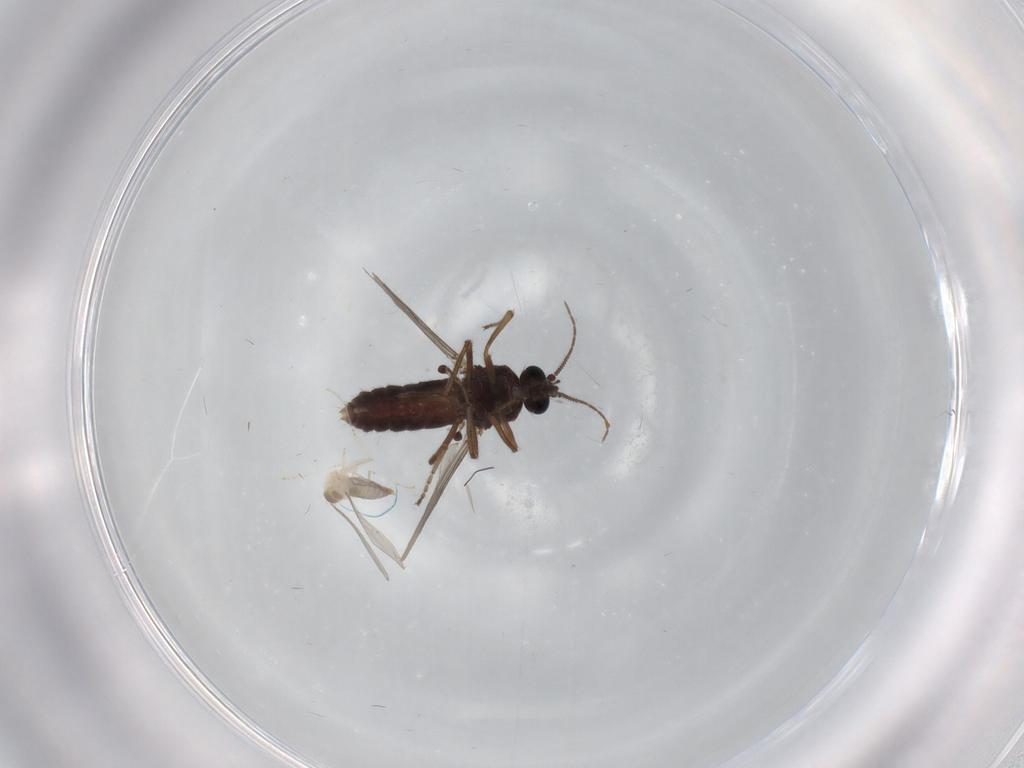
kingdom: Animalia
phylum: Arthropoda
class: Insecta
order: Diptera
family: Ceratopogonidae
